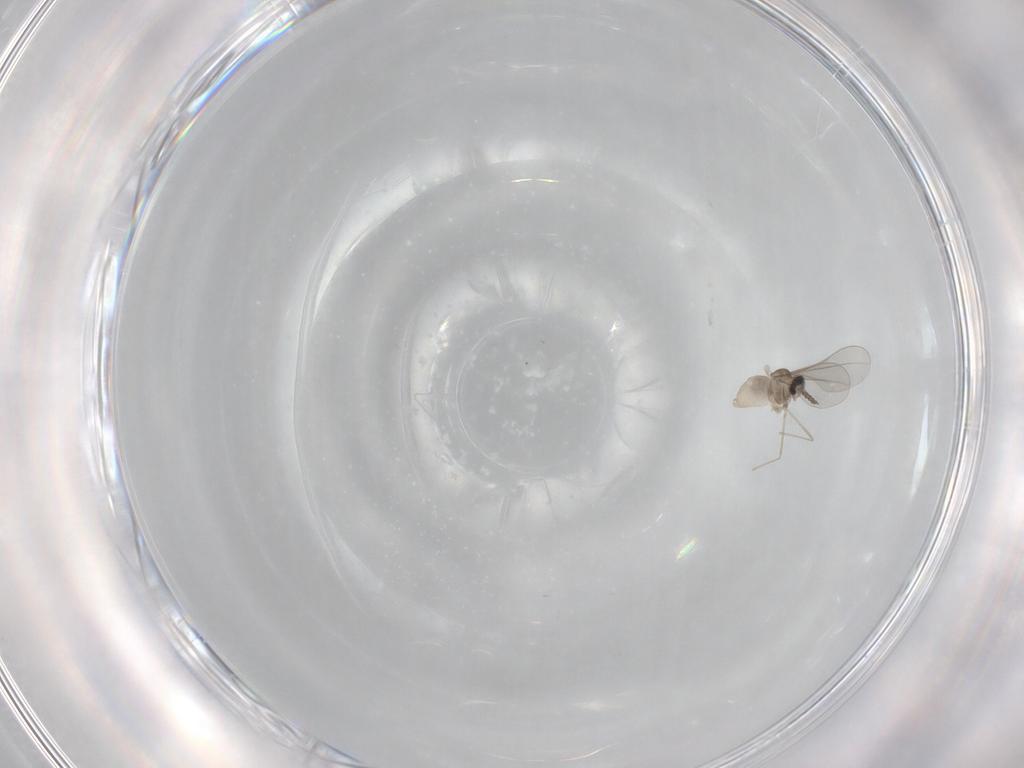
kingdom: Animalia
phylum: Arthropoda
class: Insecta
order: Diptera
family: Cecidomyiidae
